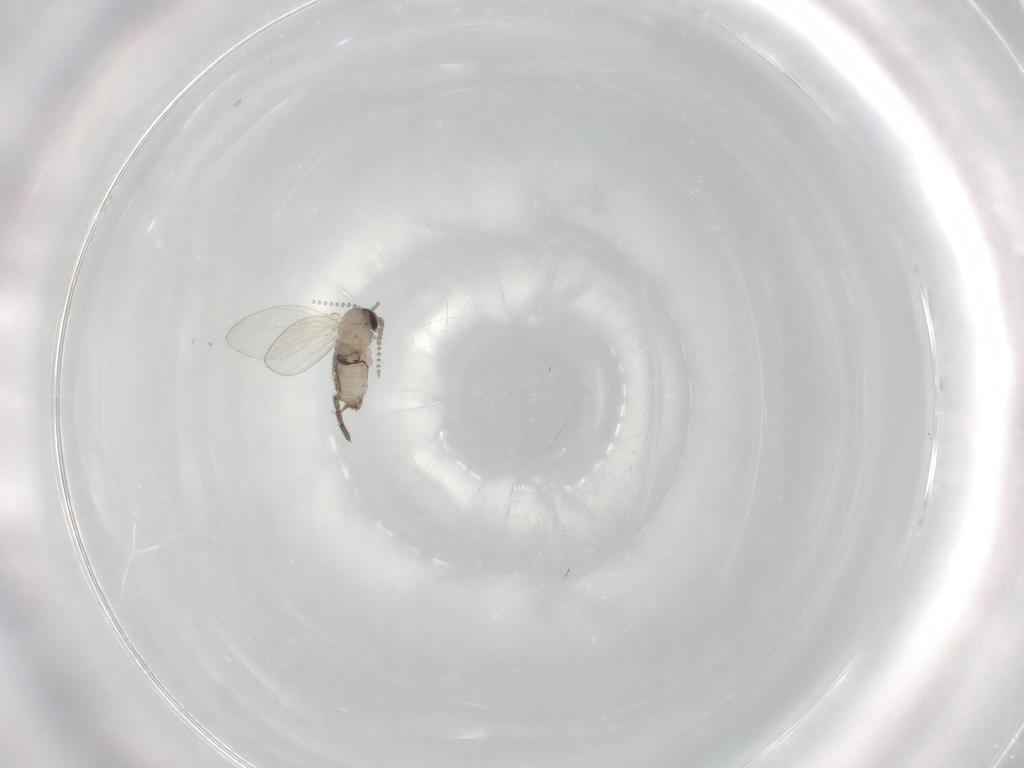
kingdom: Animalia
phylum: Arthropoda
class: Insecta
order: Diptera
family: Psychodidae
